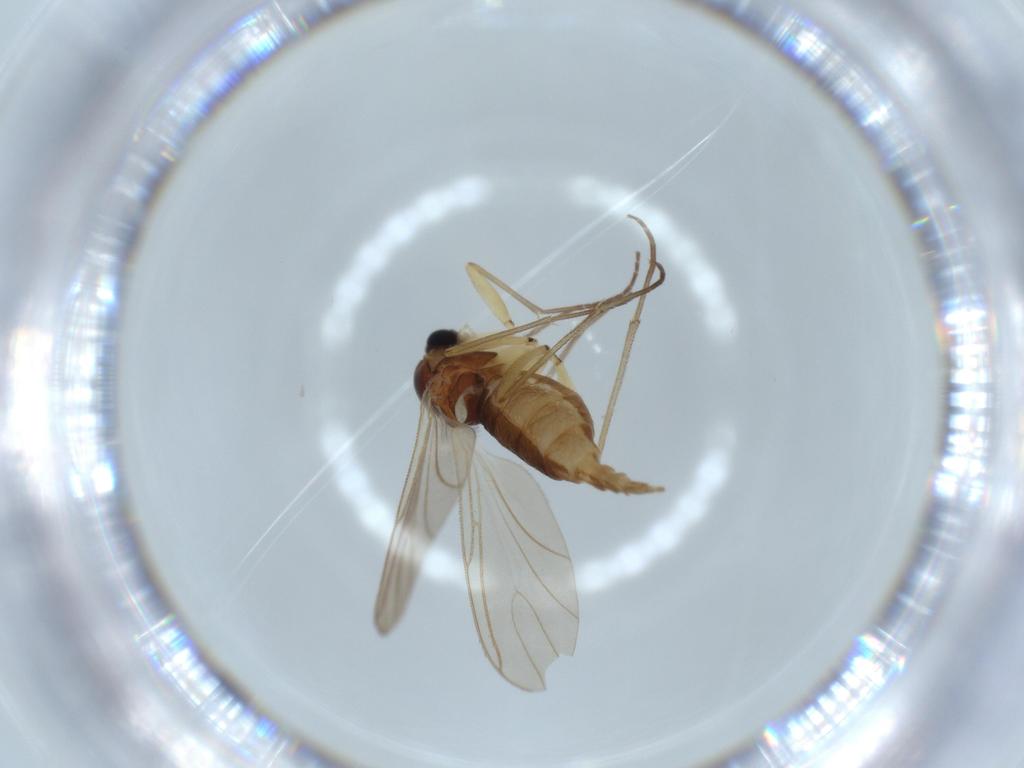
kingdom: Animalia
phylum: Arthropoda
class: Insecta
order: Diptera
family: Sciaridae
